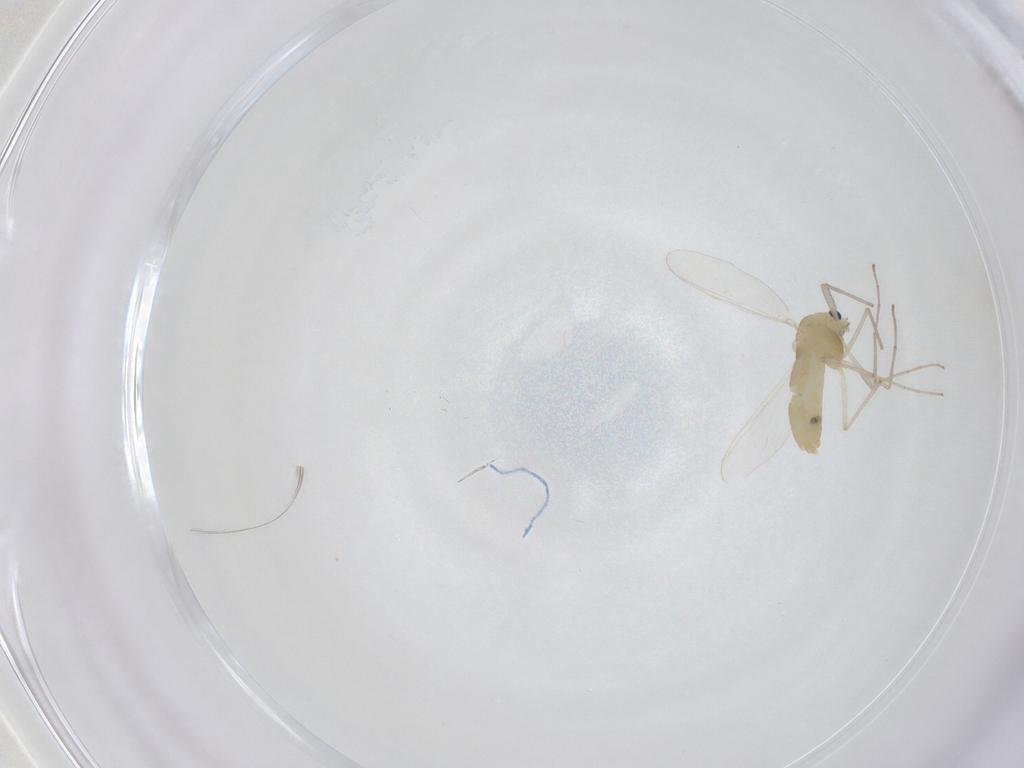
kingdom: Animalia
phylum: Arthropoda
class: Insecta
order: Diptera
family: Chironomidae
